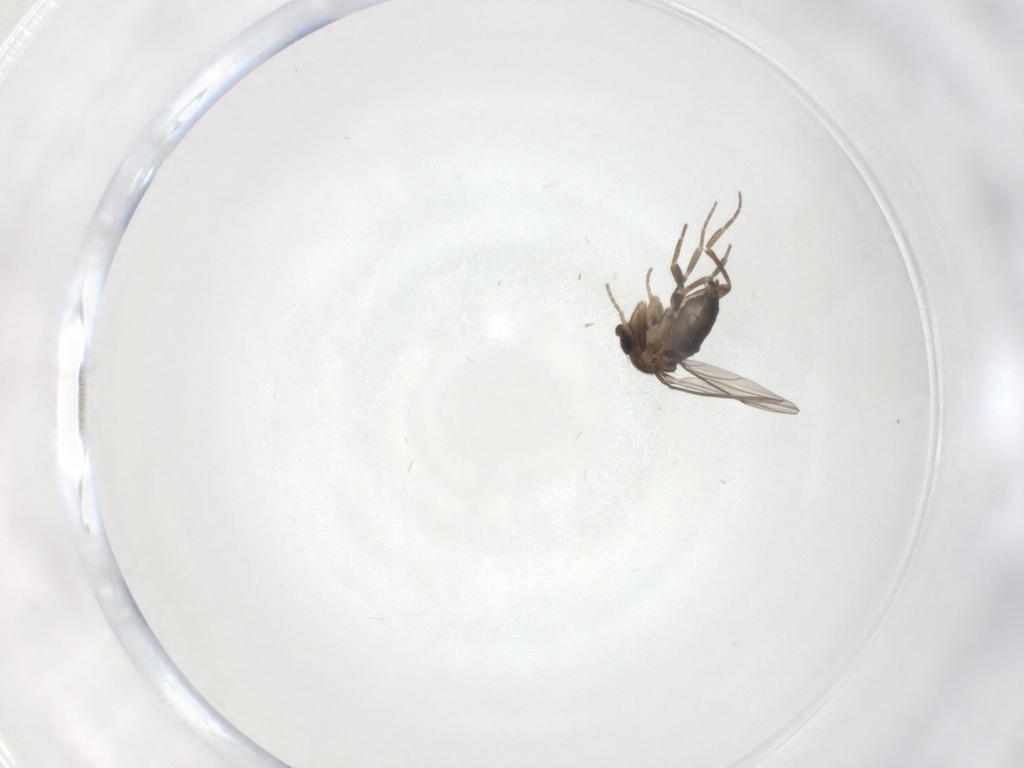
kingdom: Animalia
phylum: Arthropoda
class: Insecta
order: Diptera
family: Phoridae
